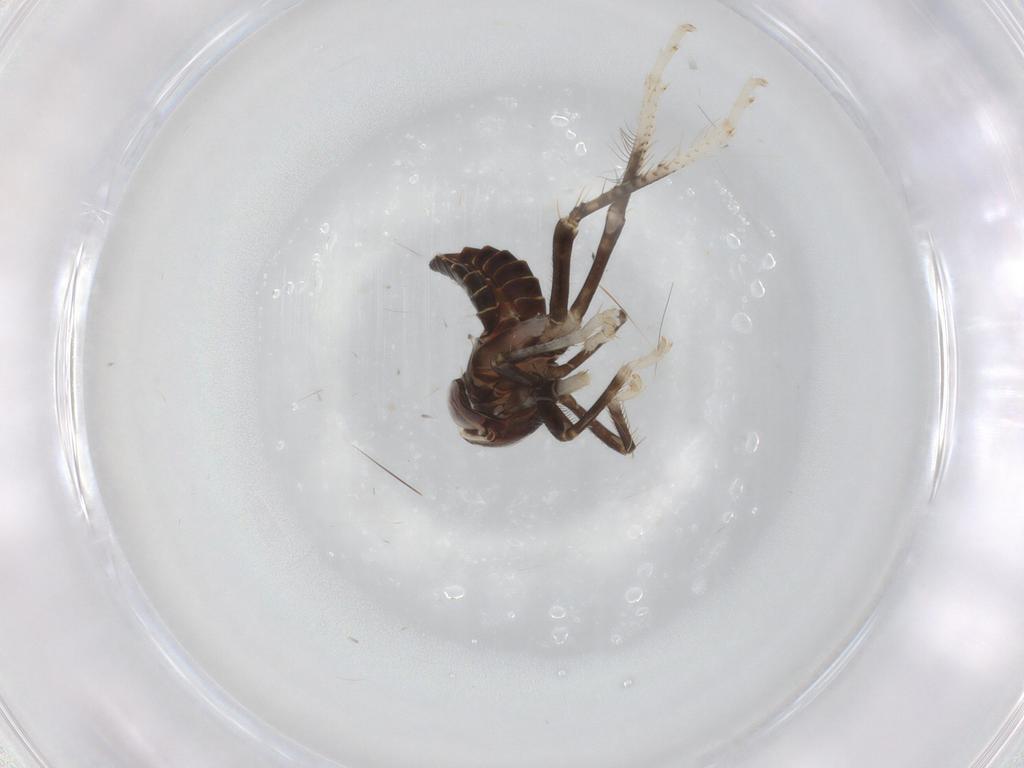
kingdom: Animalia
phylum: Arthropoda
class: Insecta
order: Hemiptera
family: Cicadellidae
